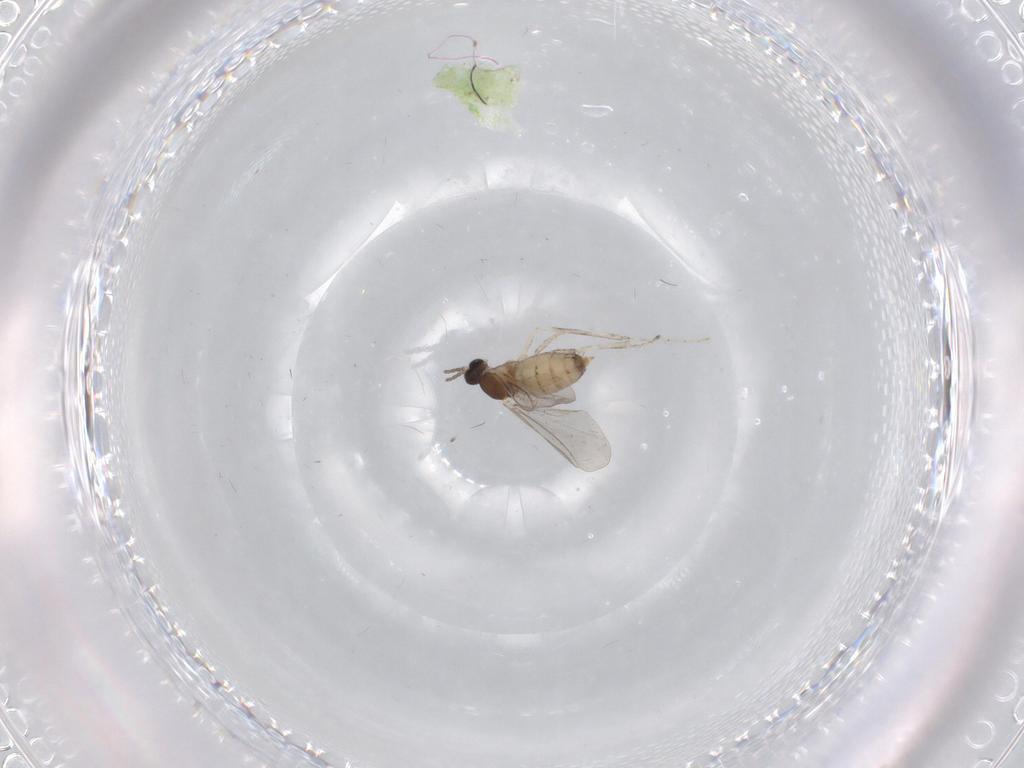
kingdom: Animalia
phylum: Arthropoda
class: Insecta
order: Diptera
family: Cecidomyiidae
